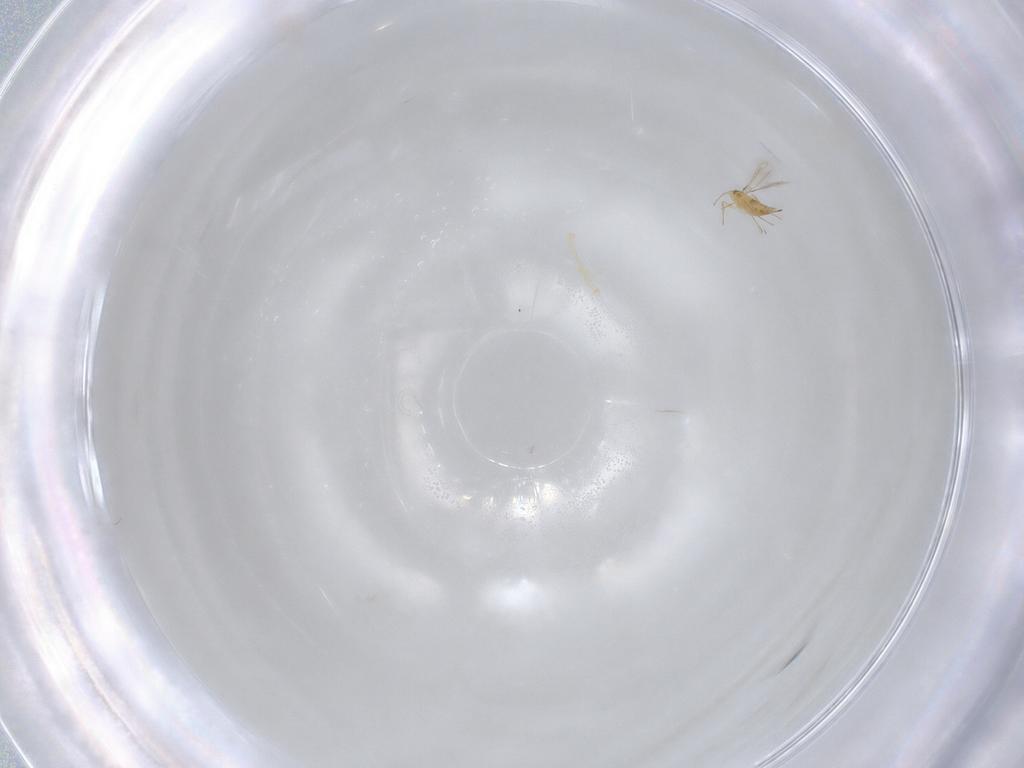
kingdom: Animalia
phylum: Arthropoda
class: Insecta
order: Hymenoptera
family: Mymaridae
